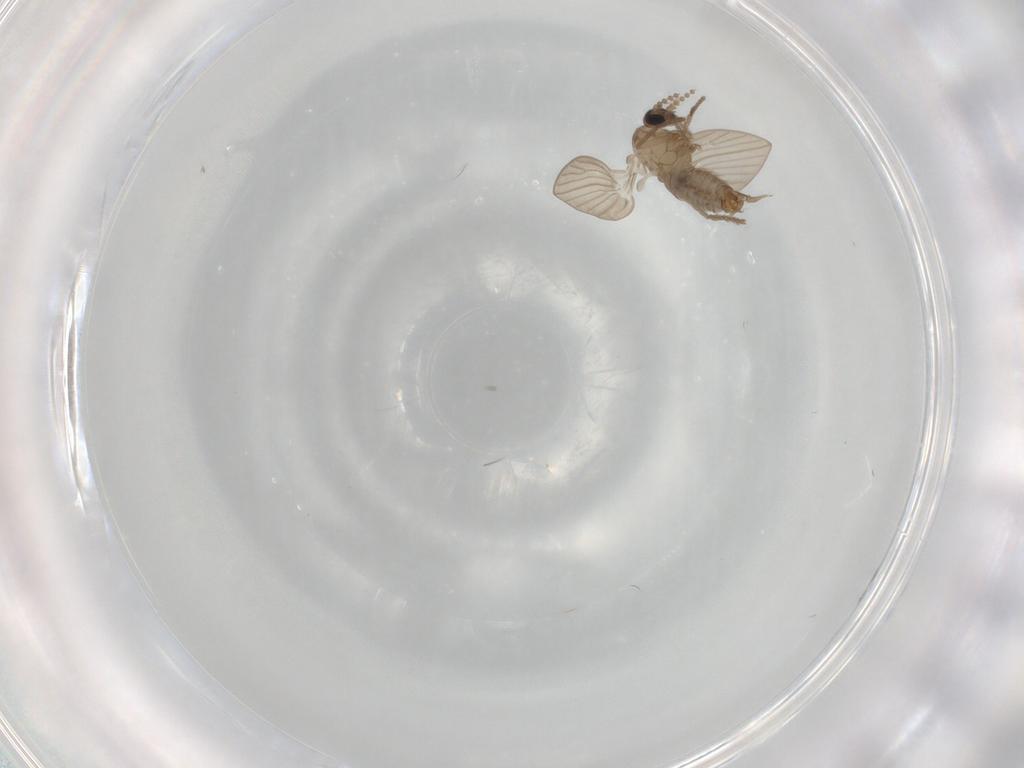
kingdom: Animalia
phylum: Arthropoda
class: Insecta
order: Diptera
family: Psychodidae
